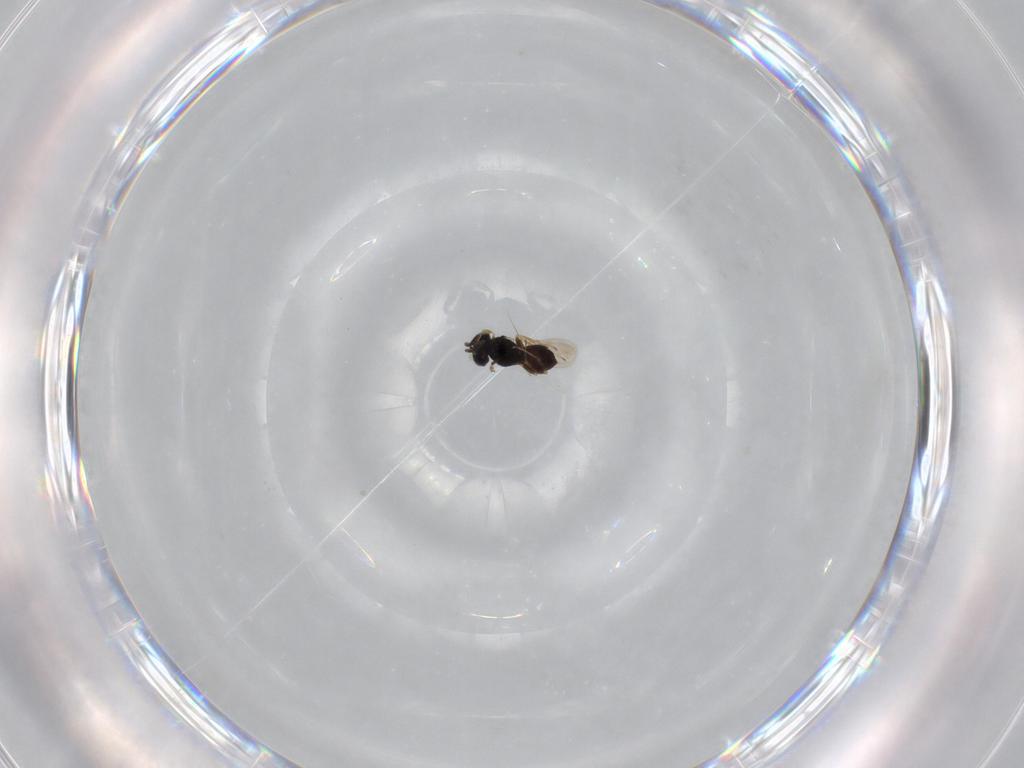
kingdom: Animalia
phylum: Arthropoda
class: Insecta
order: Hymenoptera
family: Scelionidae
